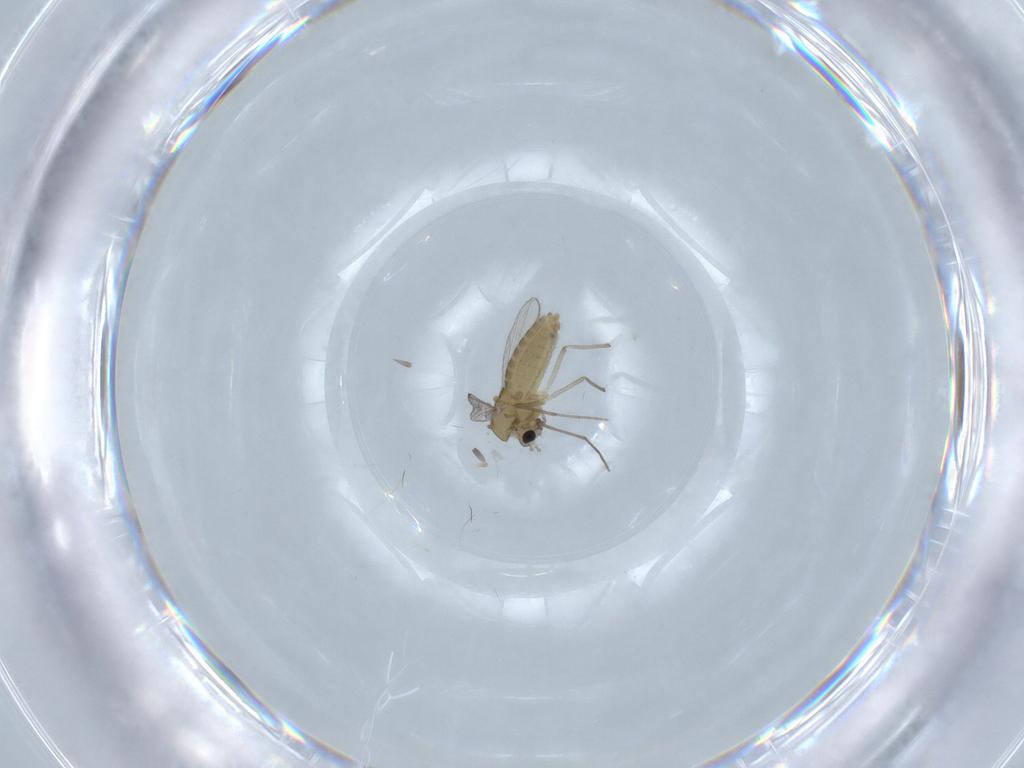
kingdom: Animalia
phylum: Arthropoda
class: Insecta
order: Diptera
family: Chironomidae
